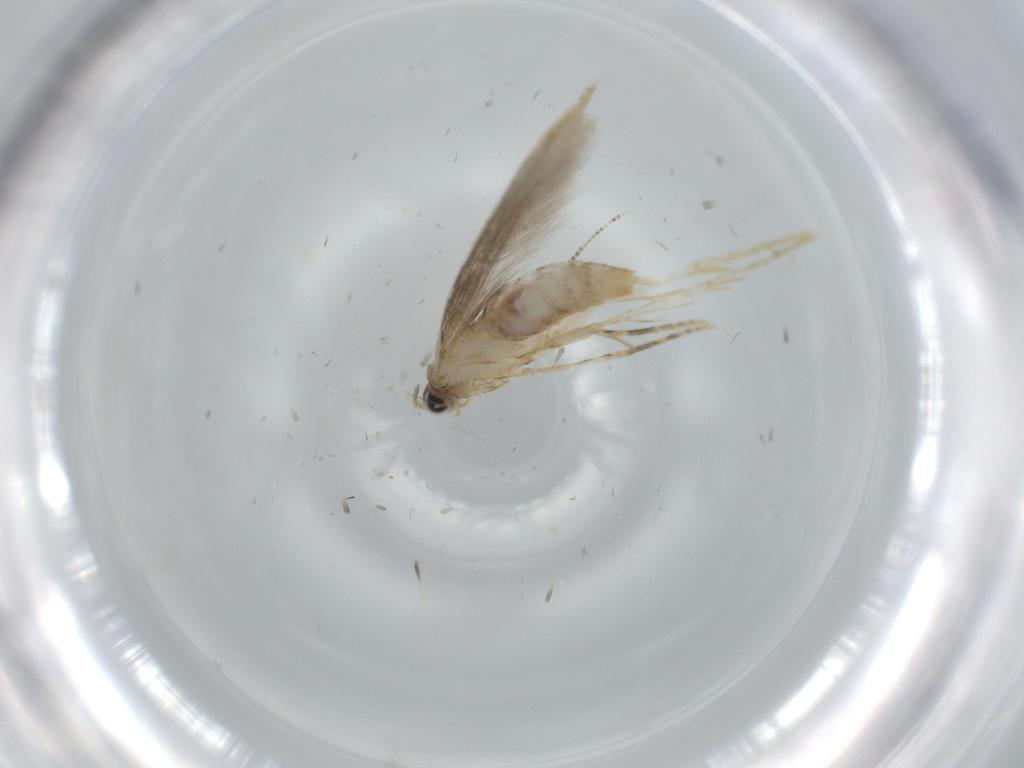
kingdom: Animalia
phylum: Arthropoda
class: Insecta
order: Lepidoptera
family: Tineidae
